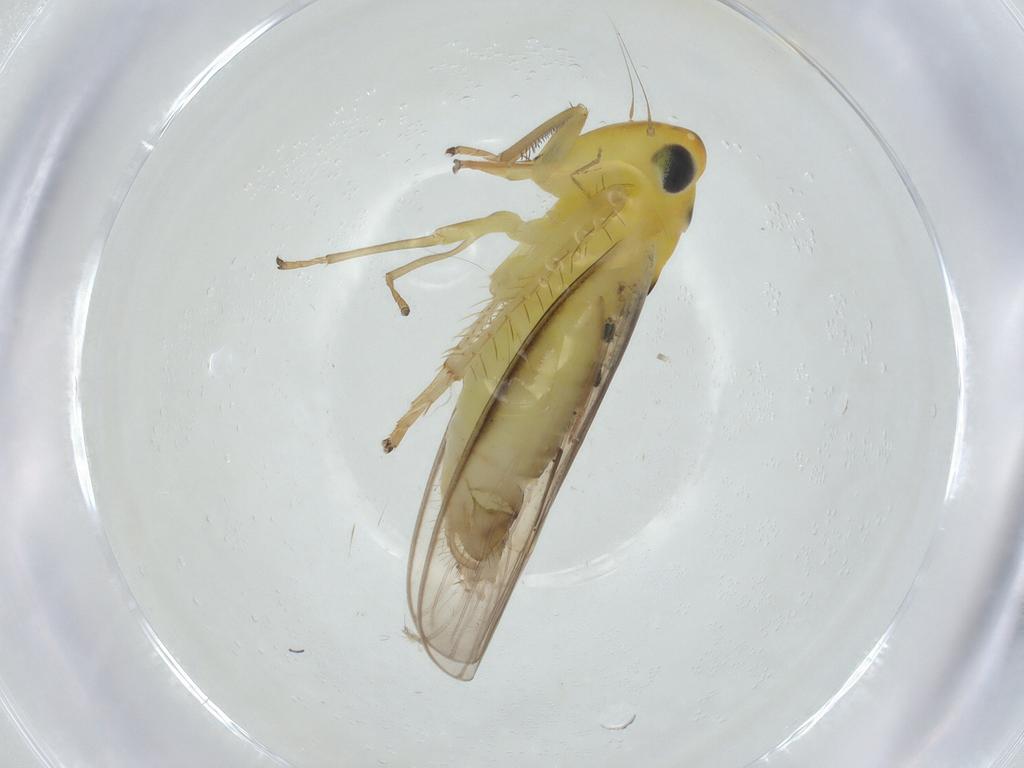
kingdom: Animalia
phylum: Arthropoda
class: Insecta
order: Hemiptera
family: Cicadellidae
